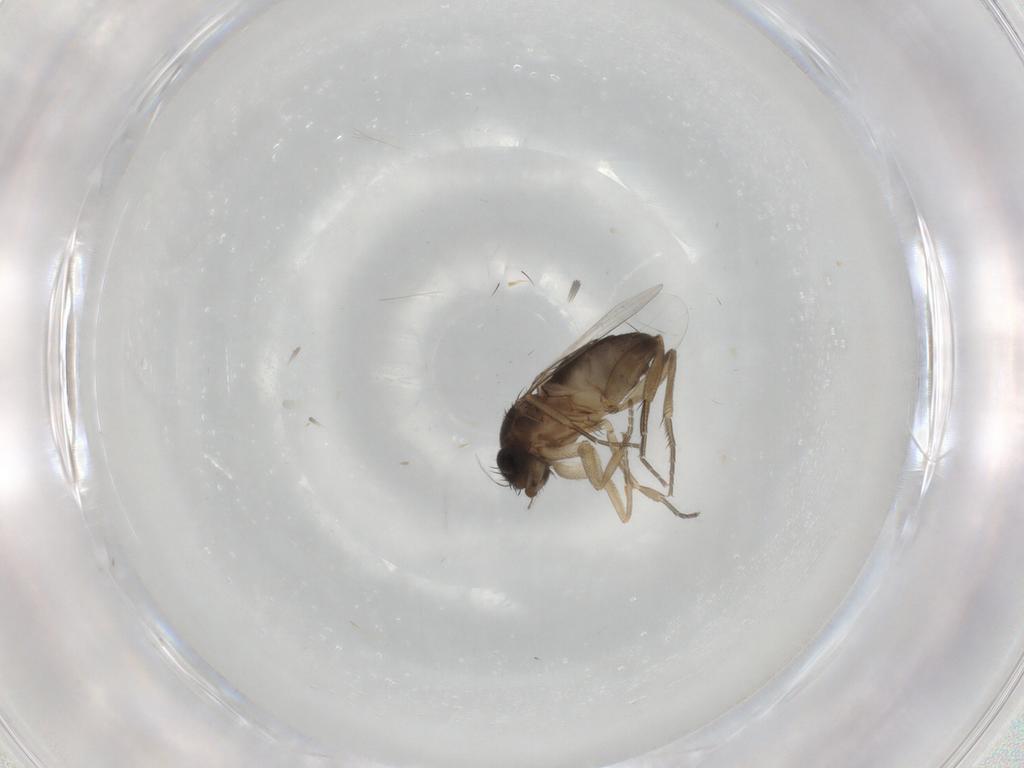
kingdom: Animalia
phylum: Arthropoda
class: Insecta
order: Diptera
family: Phoridae
